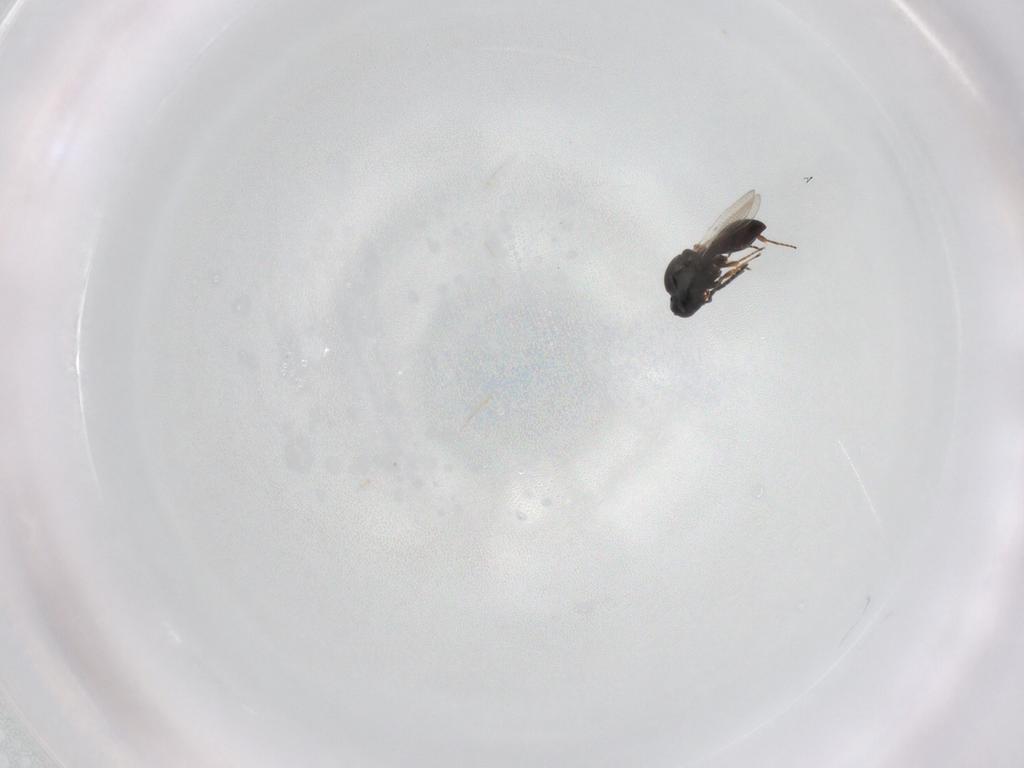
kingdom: Animalia
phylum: Arthropoda
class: Insecta
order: Hymenoptera
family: Platygastridae
